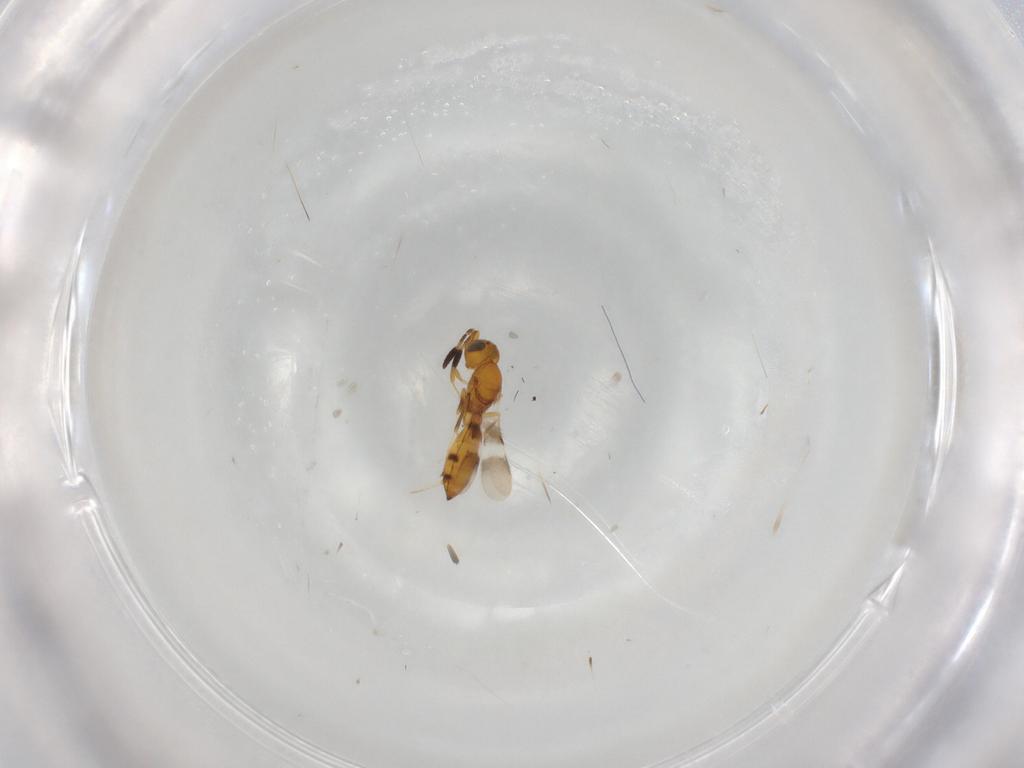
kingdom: Animalia
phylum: Arthropoda
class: Insecta
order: Hymenoptera
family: Scelionidae
